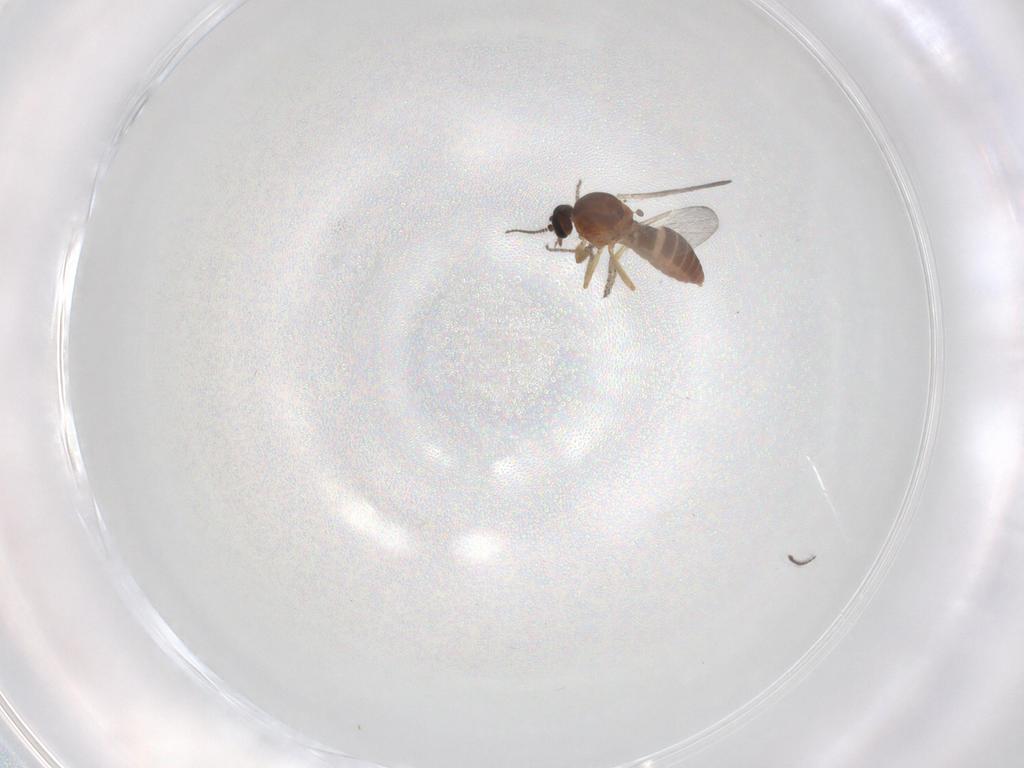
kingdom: Animalia
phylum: Arthropoda
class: Insecta
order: Diptera
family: Ceratopogonidae
